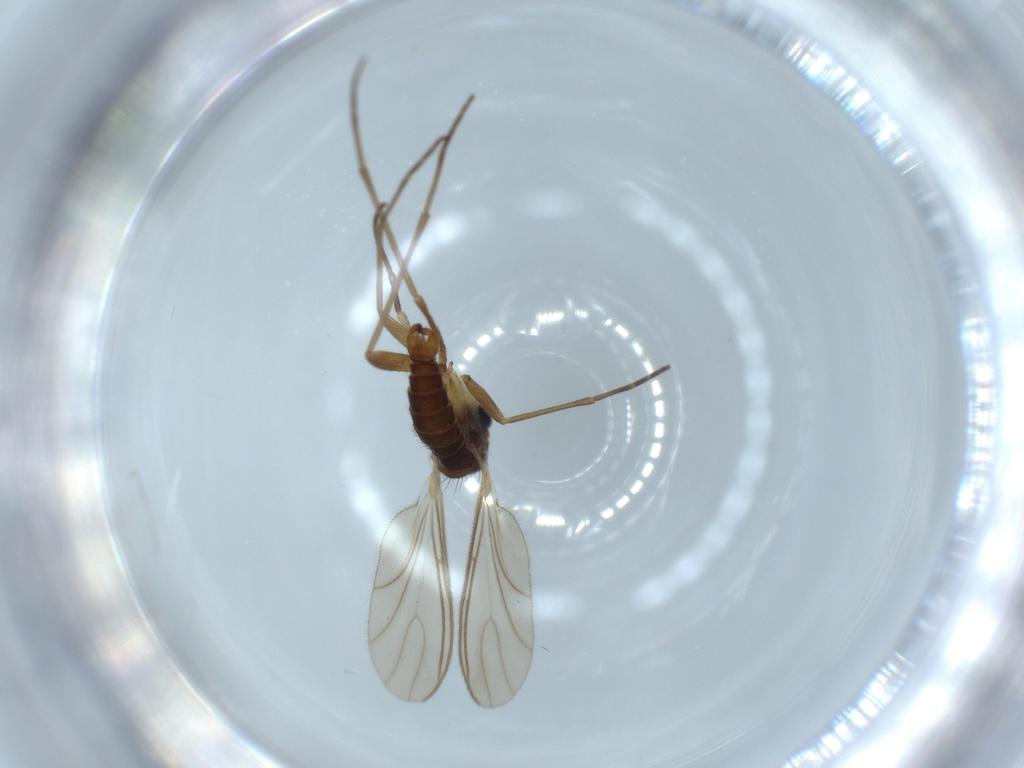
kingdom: Animalia
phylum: Arthropoda
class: Insecta
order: Diptera
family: Sciaridae
